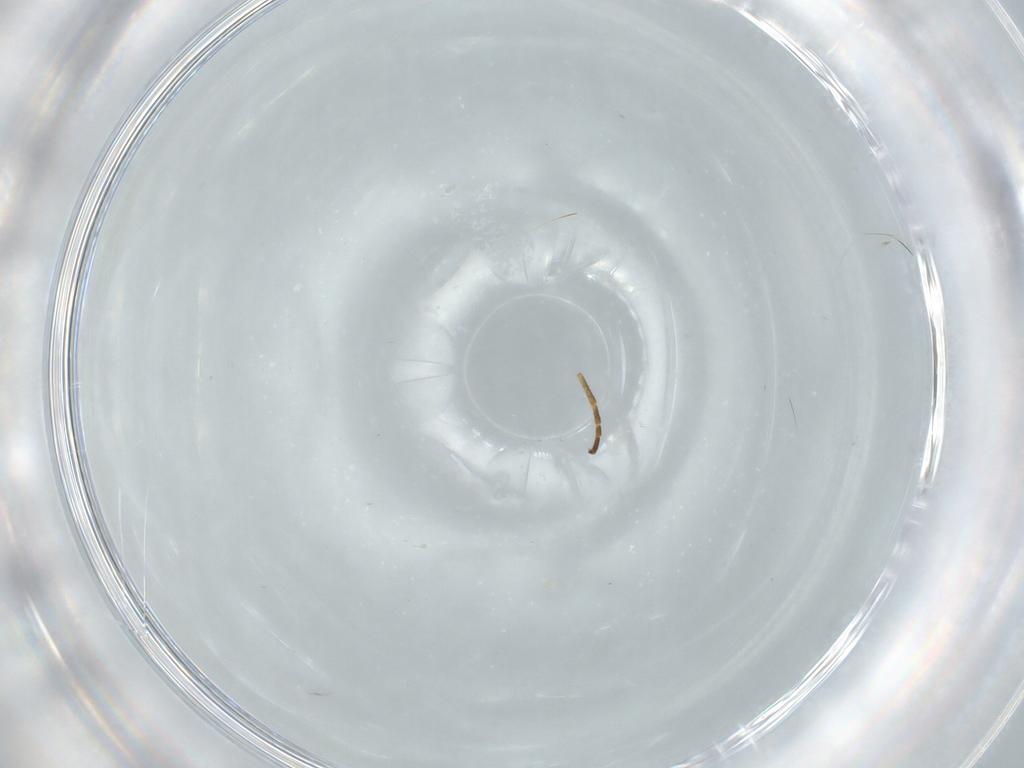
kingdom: Animalia
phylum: Arthropoda
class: Insecta
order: Diptera
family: Cecidomyiidae
